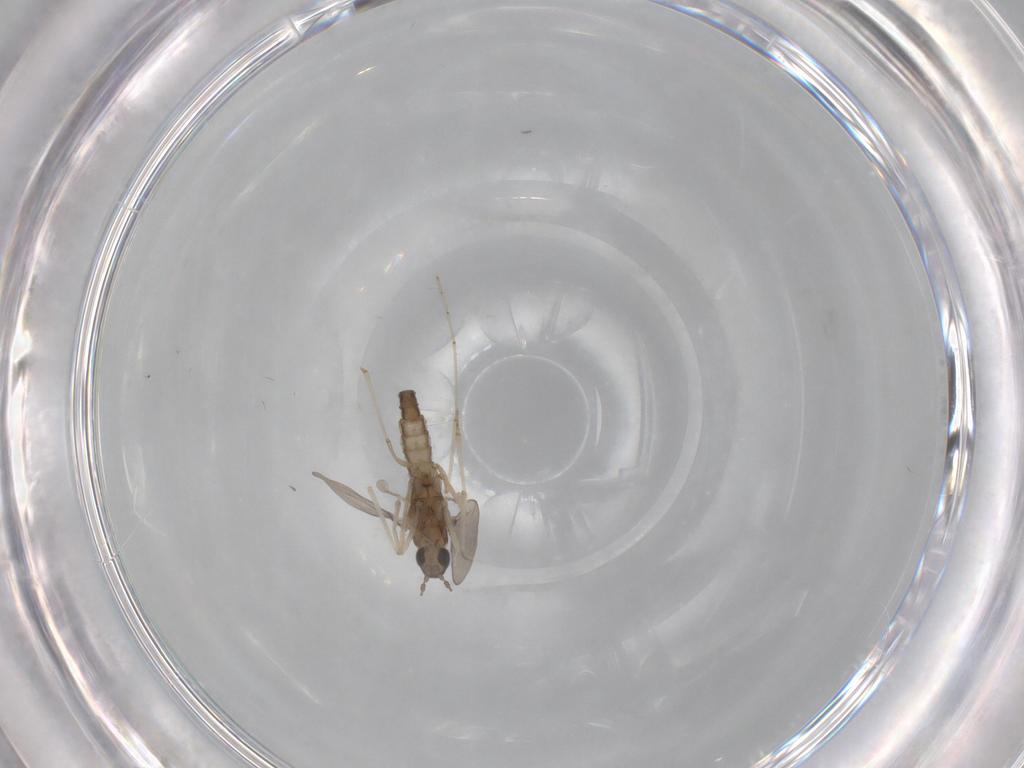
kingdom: Animalia
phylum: Arthropoda
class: Insecta
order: Diptera
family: Cecidomyiidae
